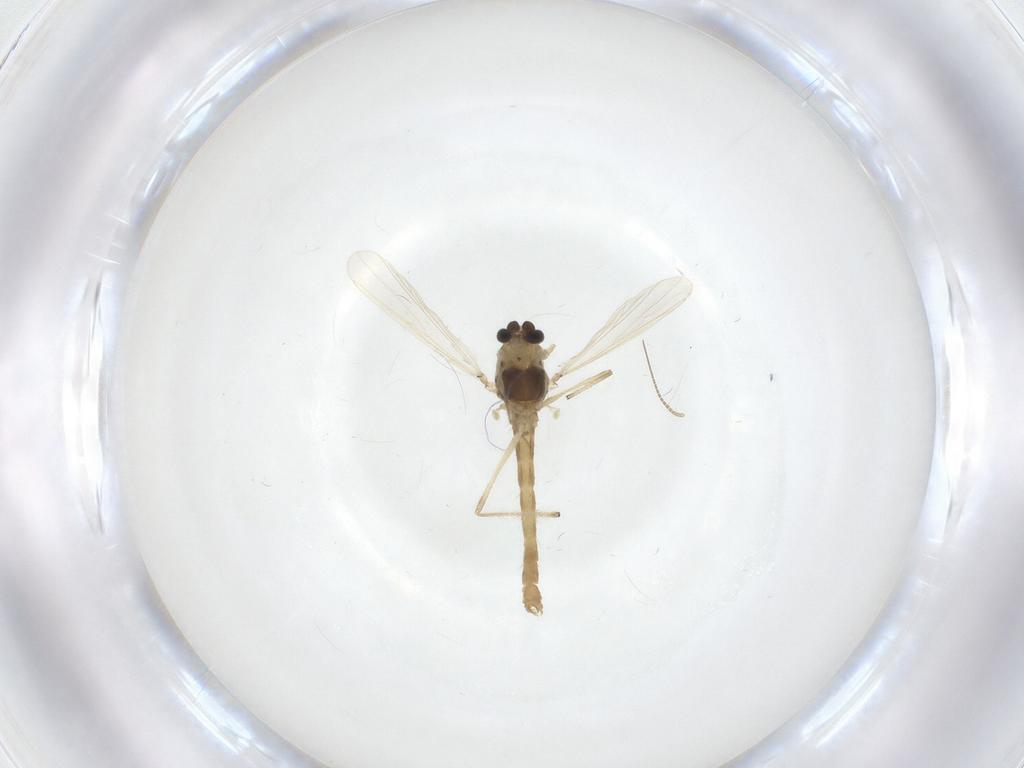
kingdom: Animalia
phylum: Arthropoda
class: Insecta
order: Diptera
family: Chironomidae
